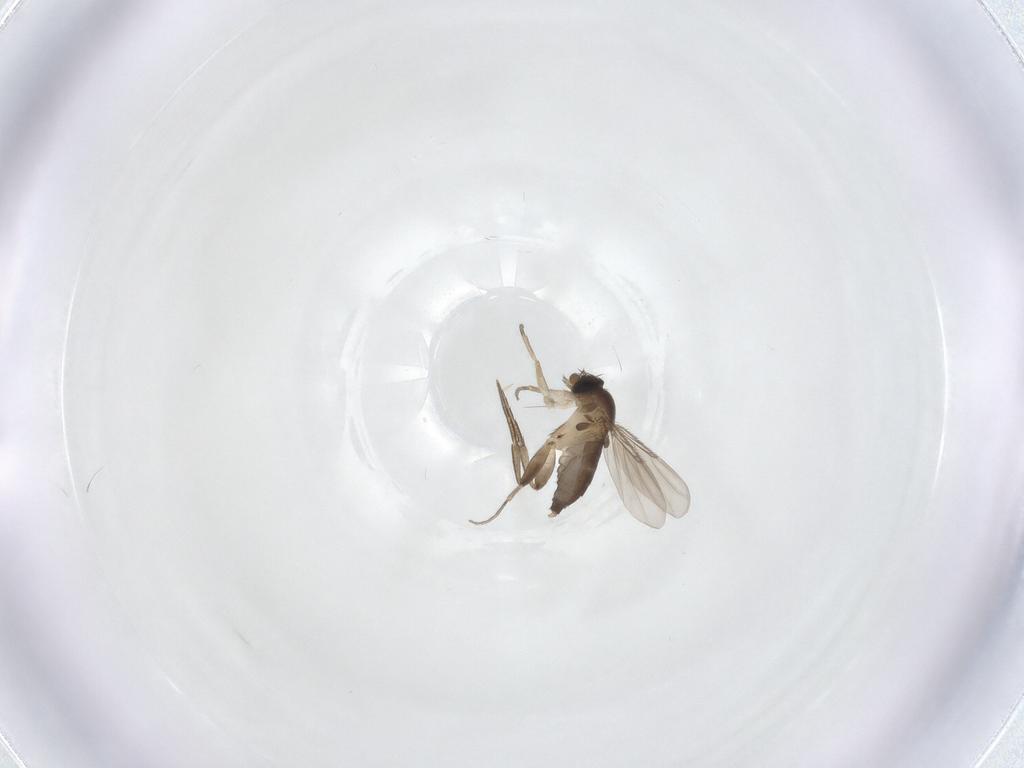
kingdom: Animalia
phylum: Arthropoda
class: Insecta
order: Diptera
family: Phoridae
